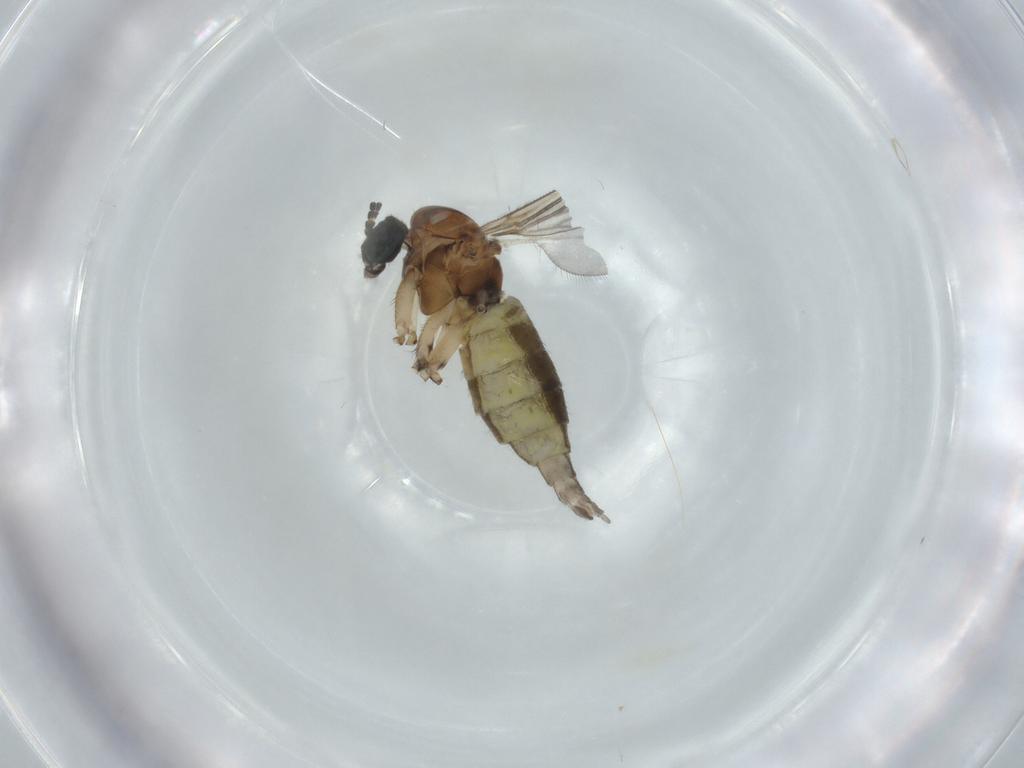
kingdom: Animalia
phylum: Arthropoda
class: Insecta
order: Diptera
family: Sciaridae
